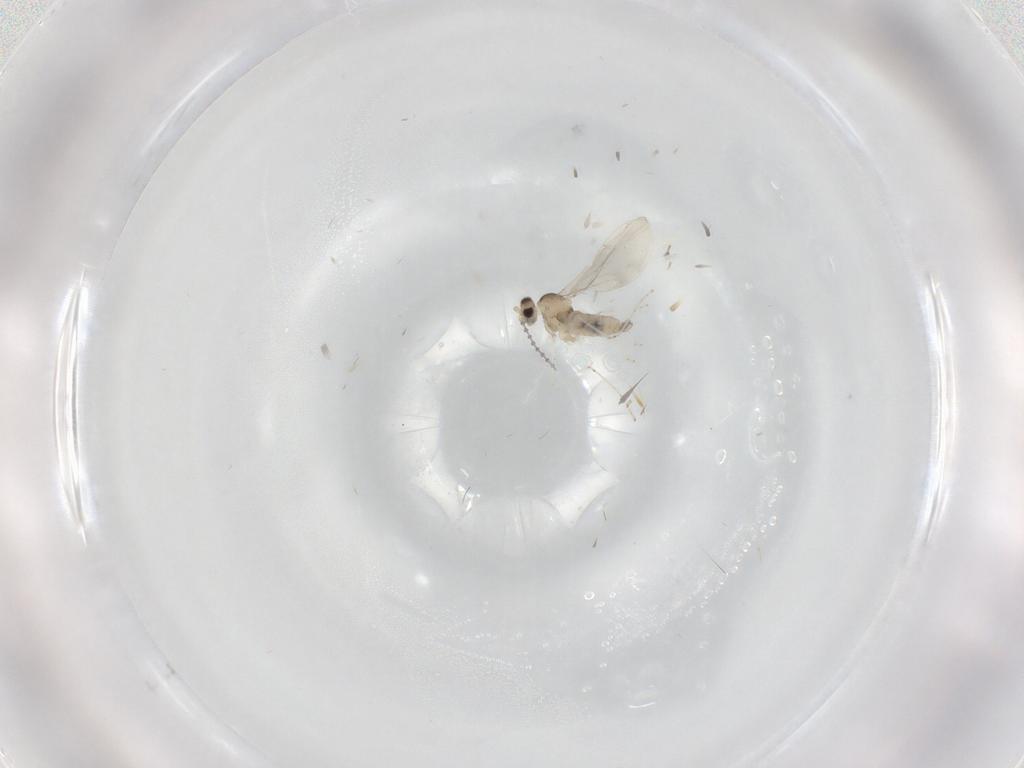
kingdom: Animalia
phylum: Arthropoda
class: Insecta
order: Diptera
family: Cecidomyiidae
